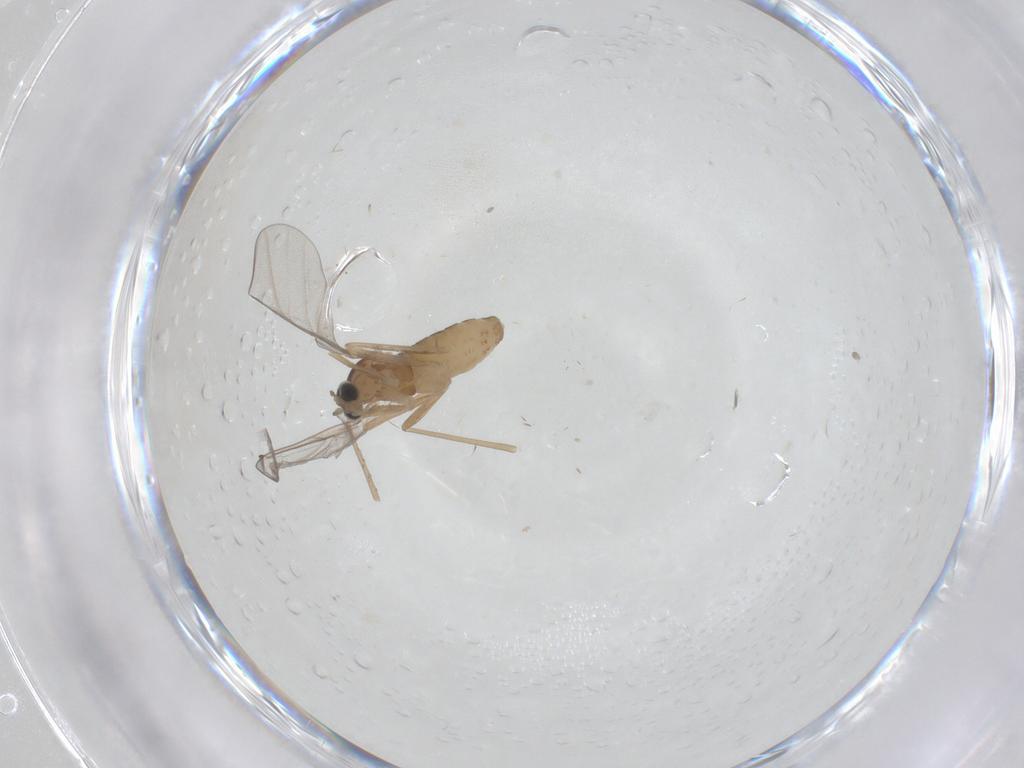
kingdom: Animalia
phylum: Arthropoda
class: Insecta
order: Diptera
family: Cecidomyiidae
